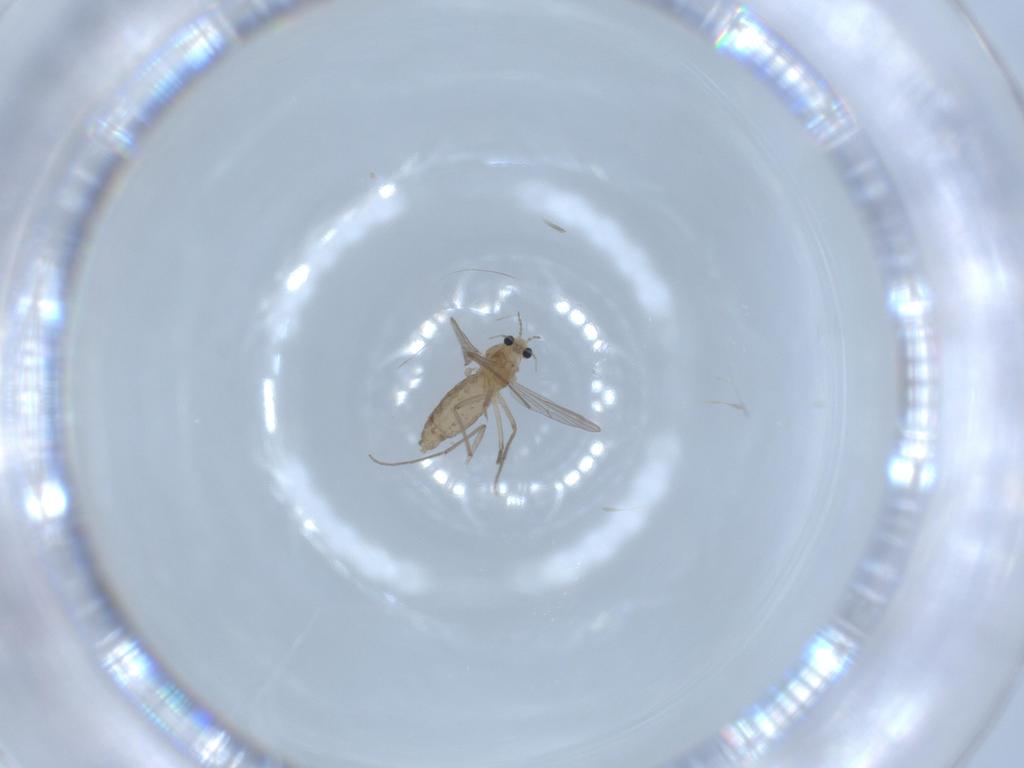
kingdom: Animalia
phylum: Arthropoda
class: Insecta
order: Diptera
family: Chironomidae
